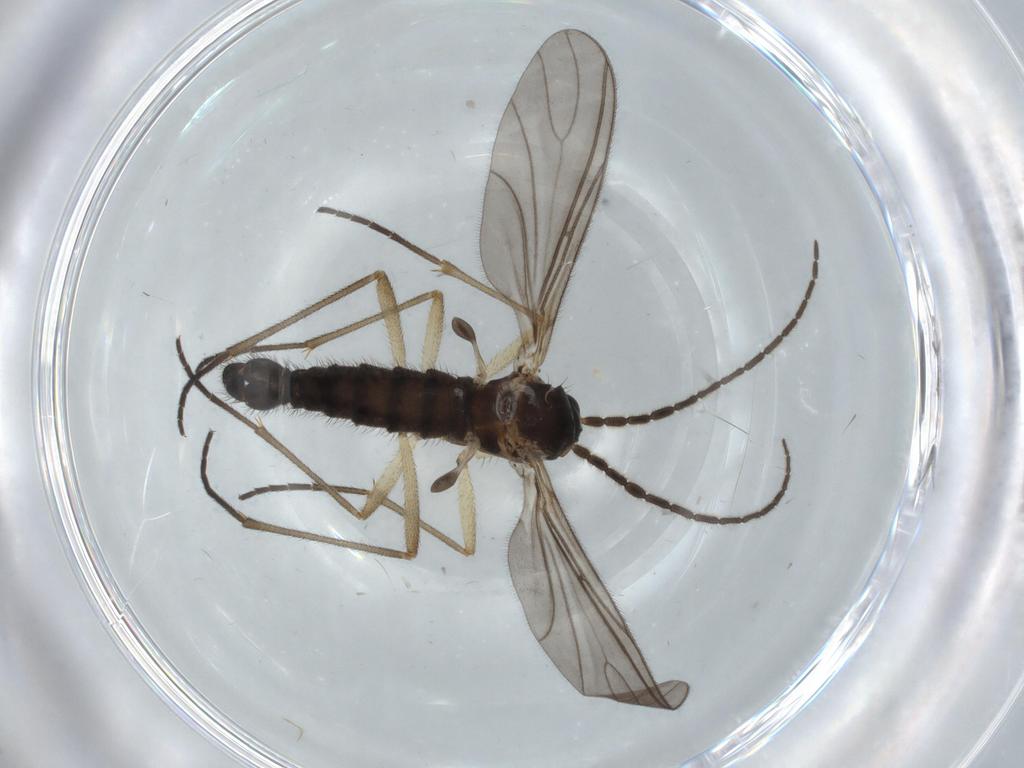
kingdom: Animalia
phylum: Arthropoda
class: Insecta
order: Diptera
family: Sciaridae
